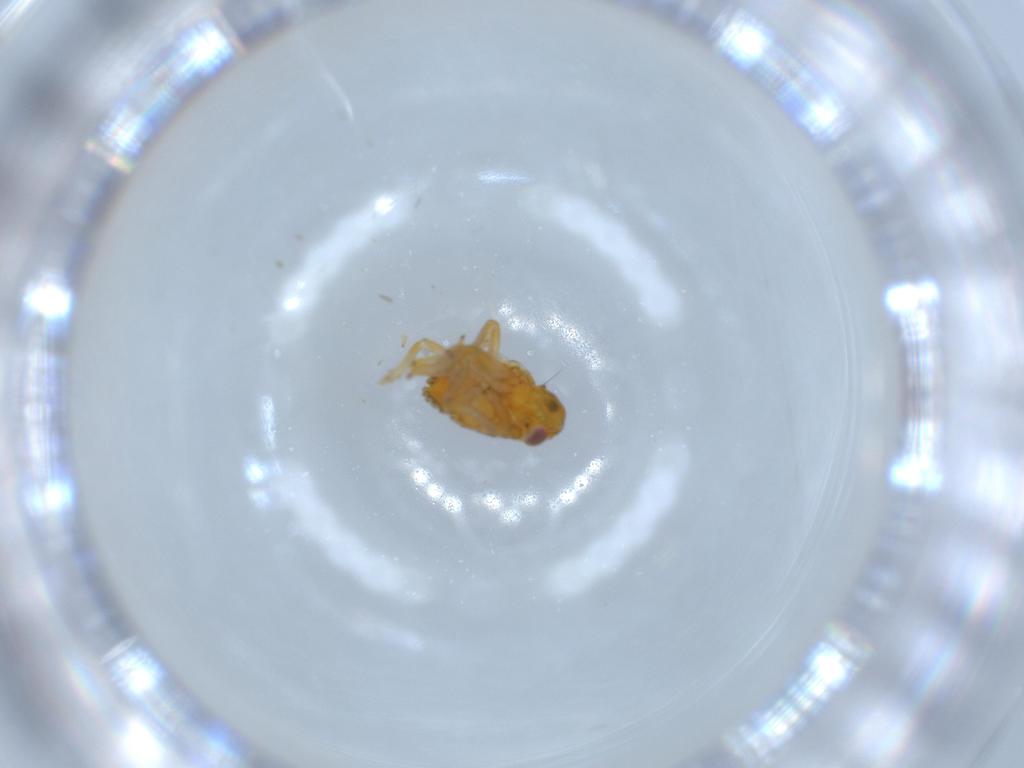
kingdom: Animalia
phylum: Arthropoda
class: Insecta
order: Hemiptera
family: Issidae
